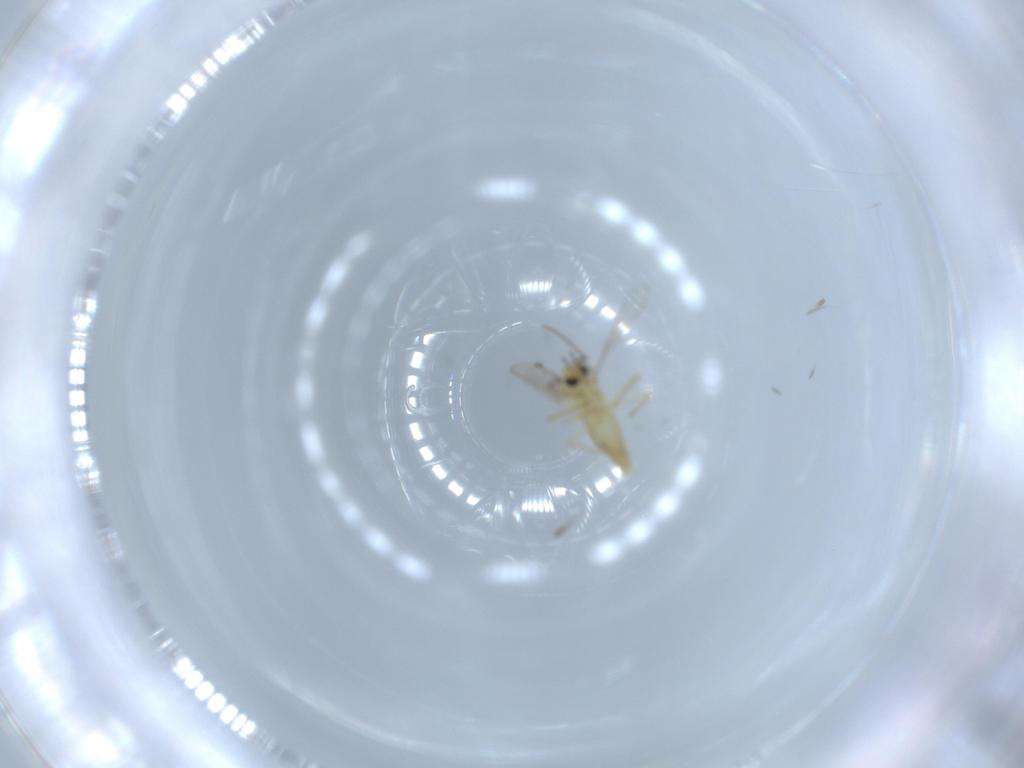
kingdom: Animalia
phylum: Arthropoda
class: Insecta
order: Diptera
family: Chironomidae
